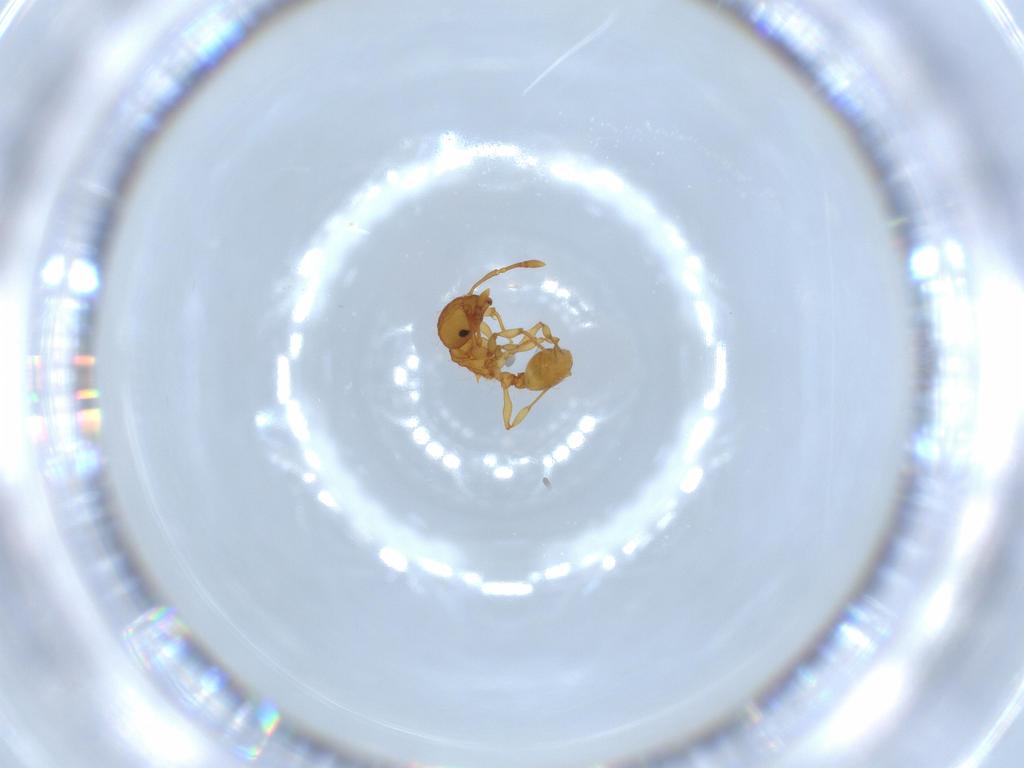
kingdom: Animalia
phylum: Arthropoda
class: Insecta
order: Hymenoptera
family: Formicidae
